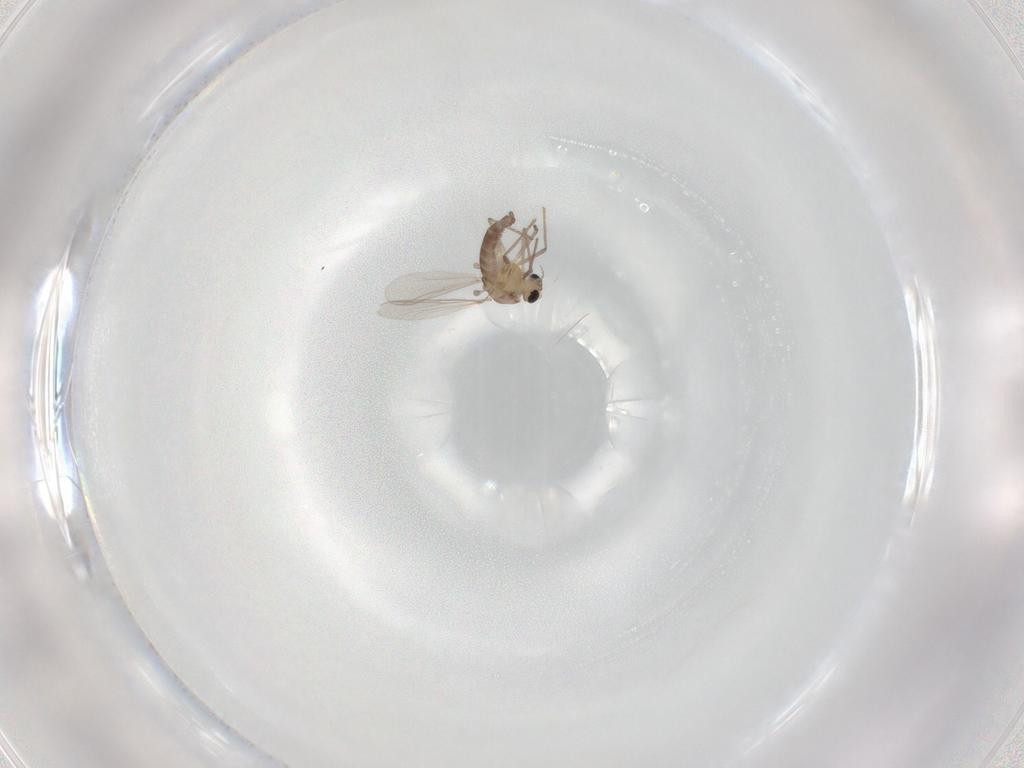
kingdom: Animalia
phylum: Arthropoda
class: Insecta
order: Diptera
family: Chironomidae
